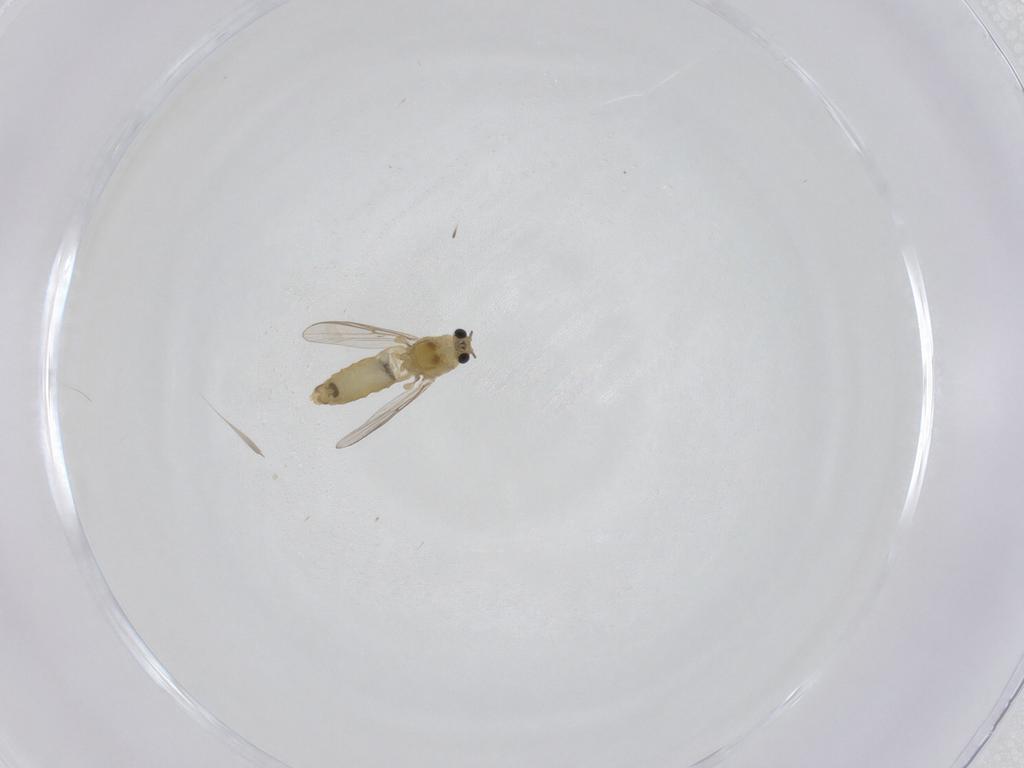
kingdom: Animalia
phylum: Arthropoda
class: Insecta
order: Diptera
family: Chironomidae
